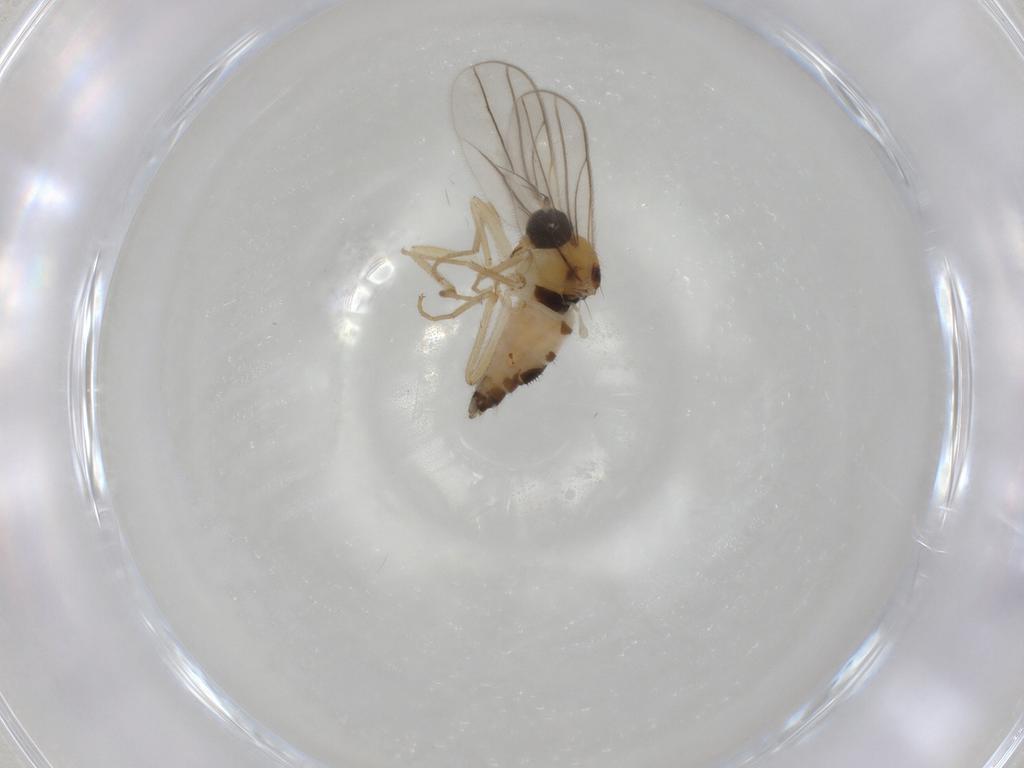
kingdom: Animalia
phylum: Arthropoda
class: Insecta
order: Diptera
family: Hybotidae
